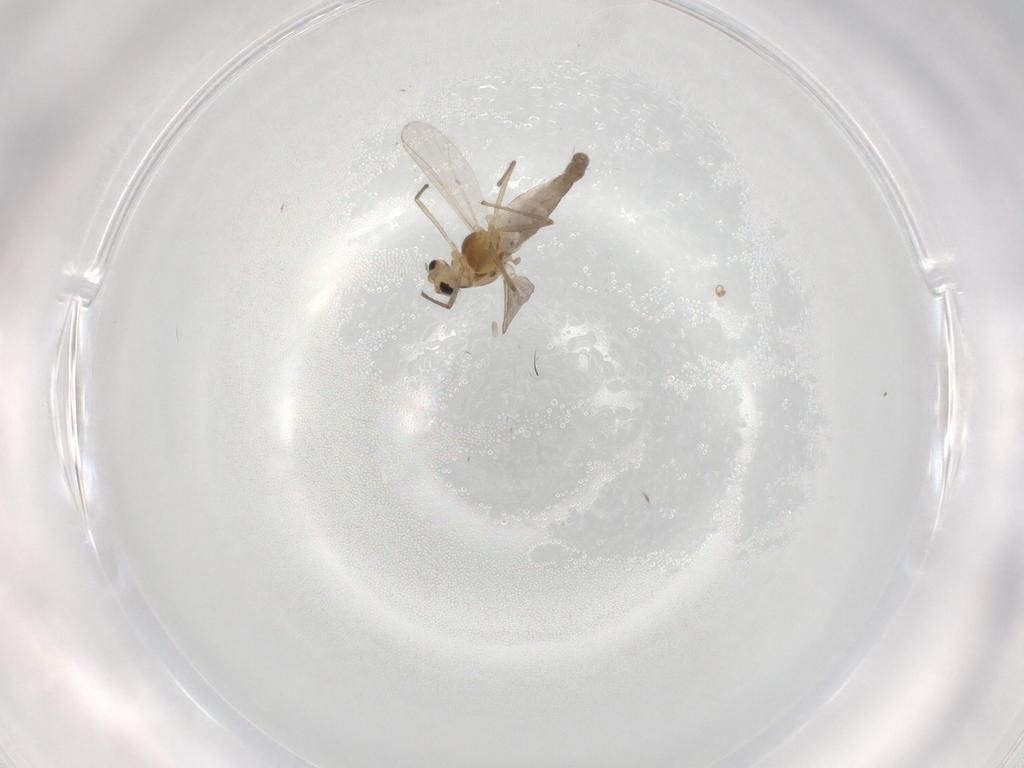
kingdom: Animalia
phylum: Arthropoda
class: Insecta
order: Diptera
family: Chironomidae
